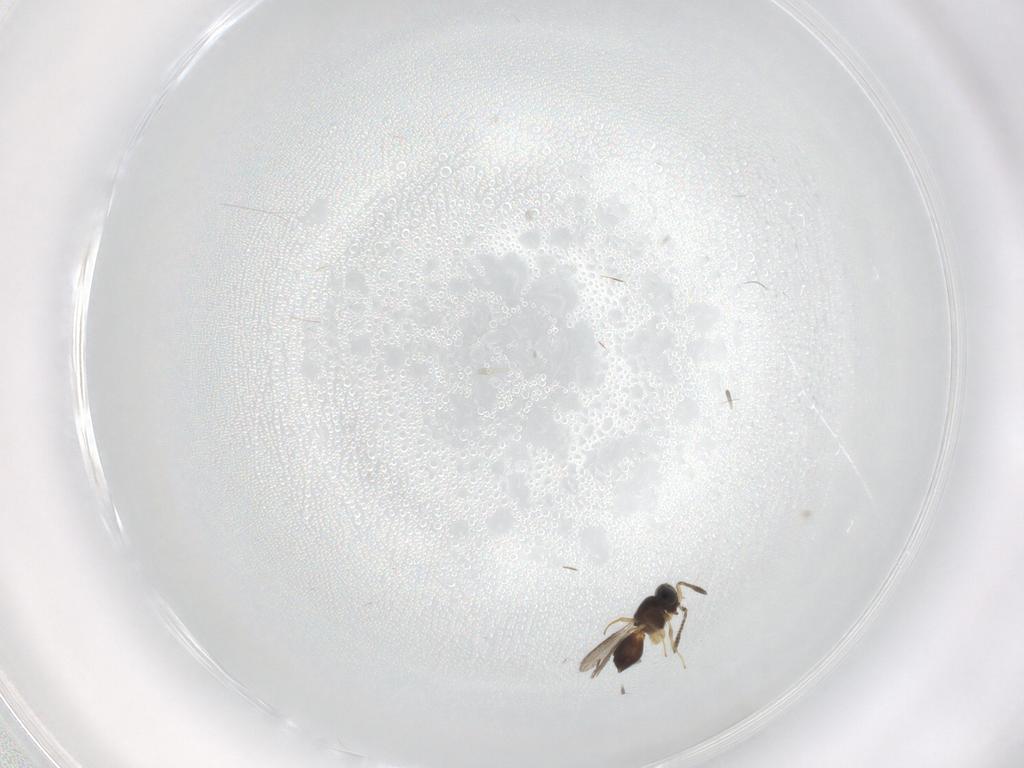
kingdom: Animalia
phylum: Arthropoda
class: Insecta
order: Hymenoptera
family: Scelionidae
